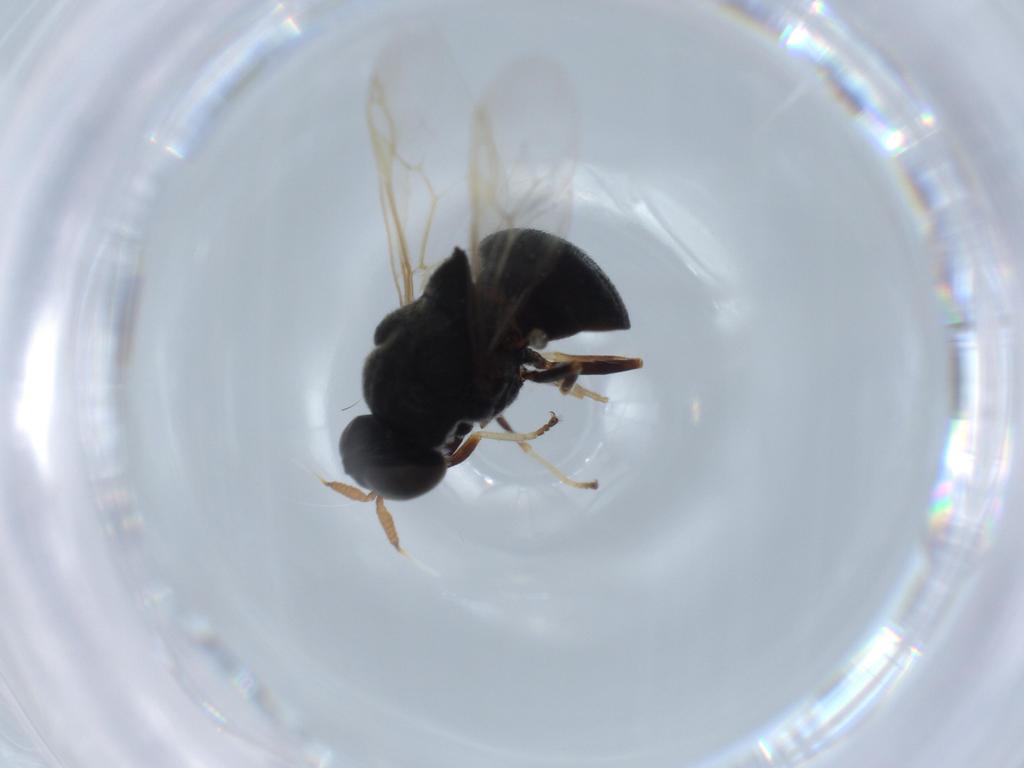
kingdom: Animalia
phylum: Arthropoda
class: Insecta
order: Diptera
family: Stratiomyidae
